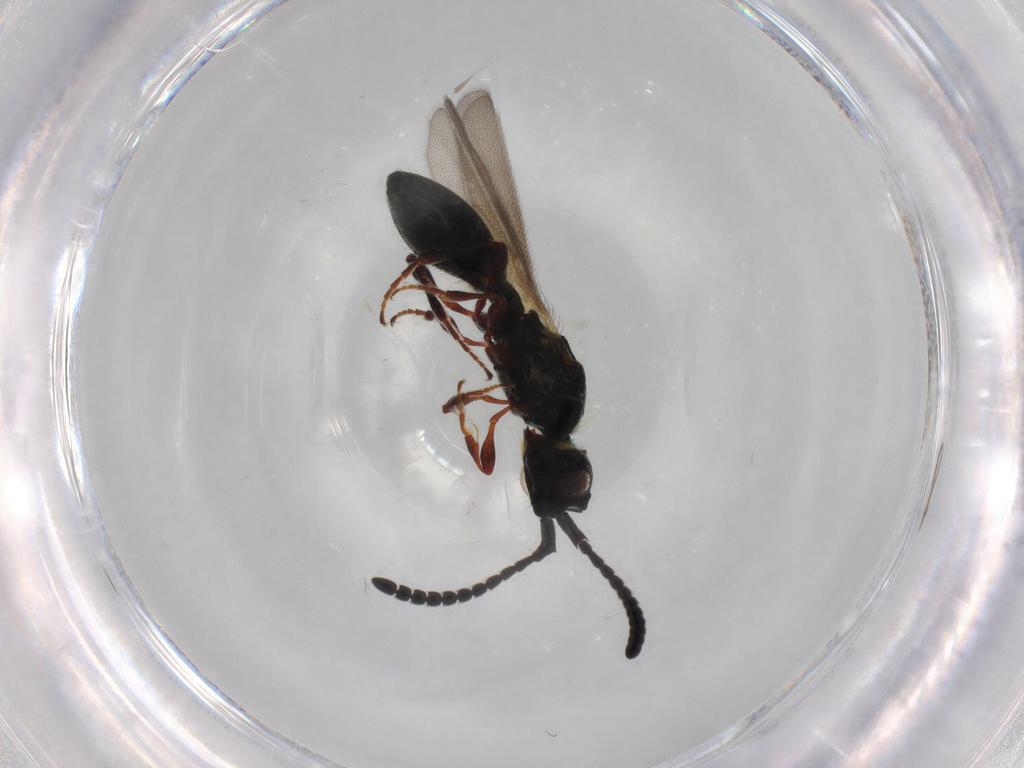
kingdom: Animalia
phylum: Arthropoda
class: Insecta
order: Hymenoptera
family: Diapriidae
